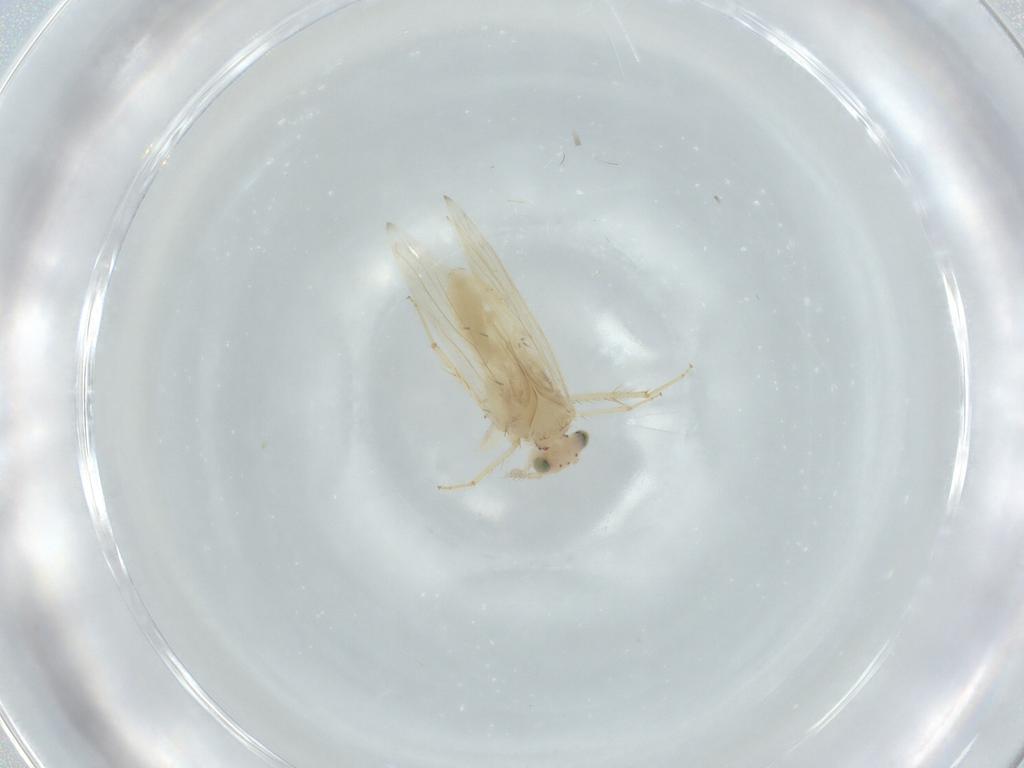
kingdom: Animalia
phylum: Arthropoda
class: Insecta
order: Psocodea
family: Lepidopsocidae
